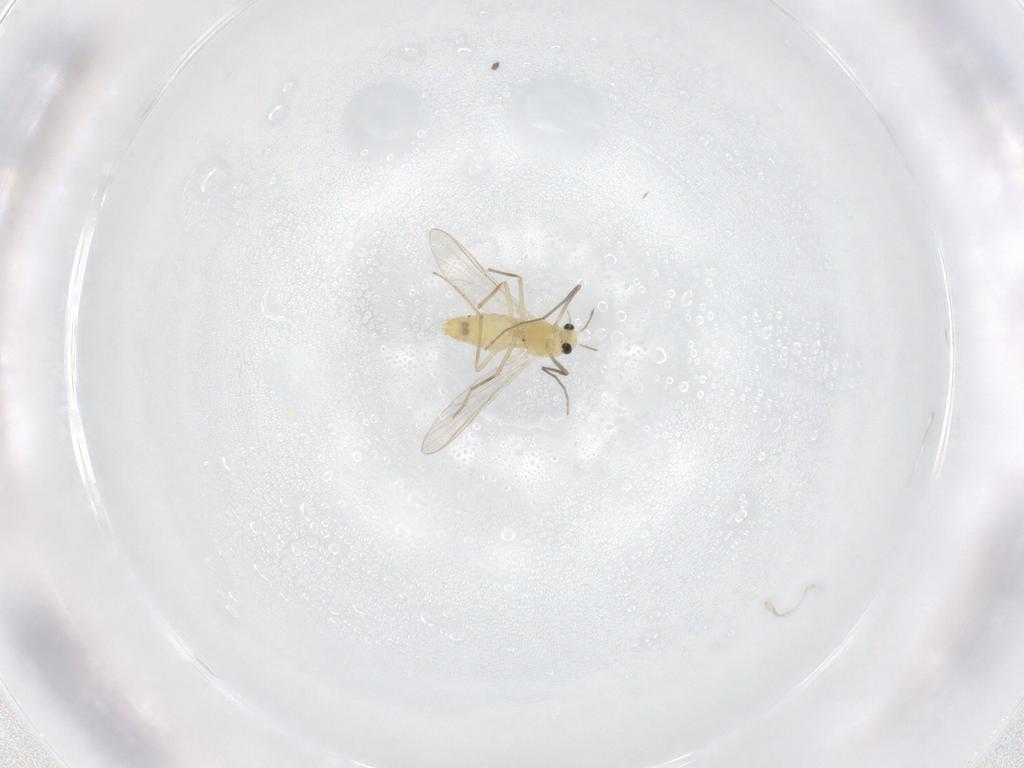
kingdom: Animalia
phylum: Arthropoda
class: Insecta
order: Diptera
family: Chironomidae
